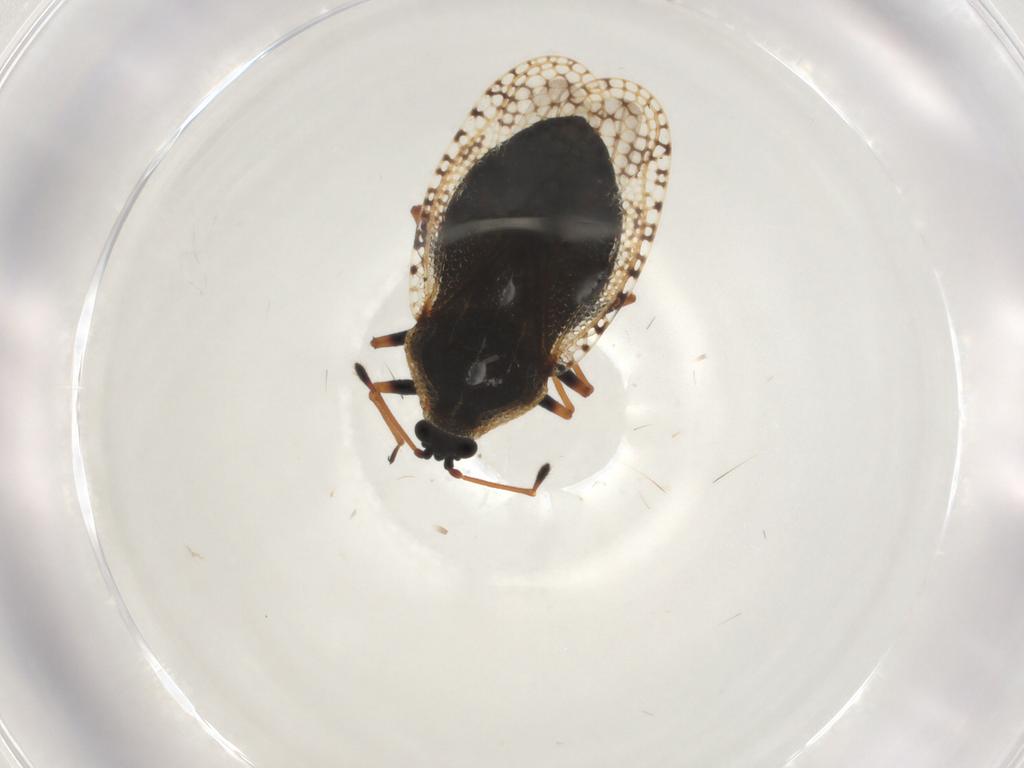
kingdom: Animalia
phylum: Arthropoda
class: Insecta
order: Hemiptera
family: Tingidae
